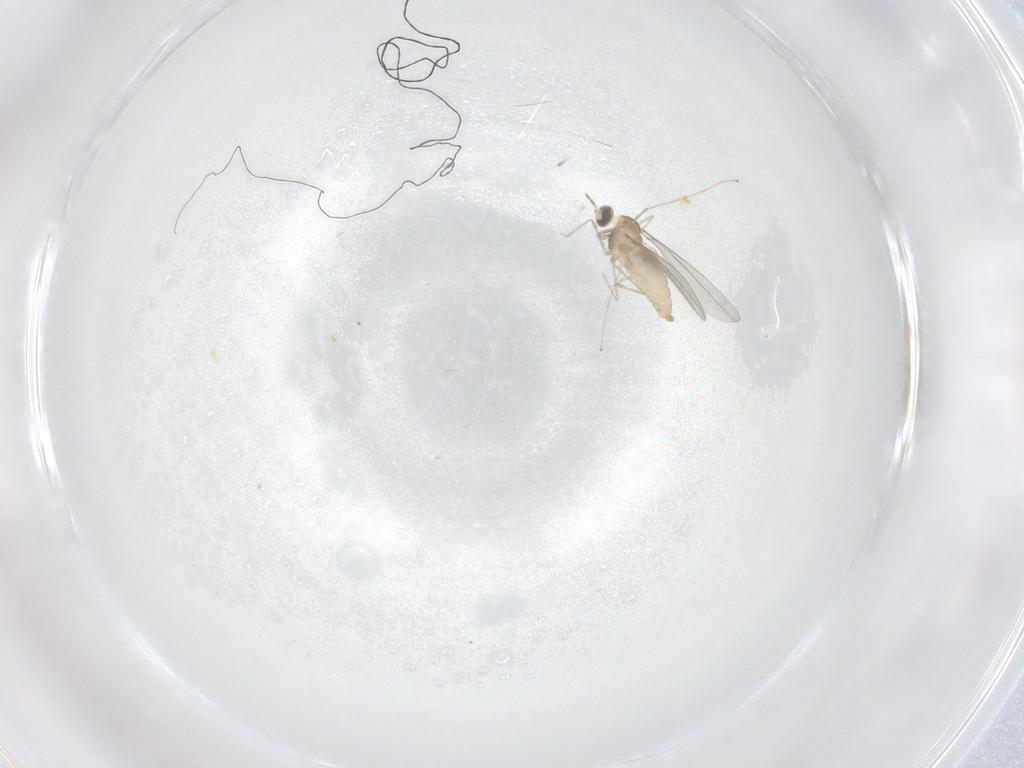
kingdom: Animalia
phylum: Arthropoda
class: Insecta
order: Diptera
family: Cecidomyiidae
